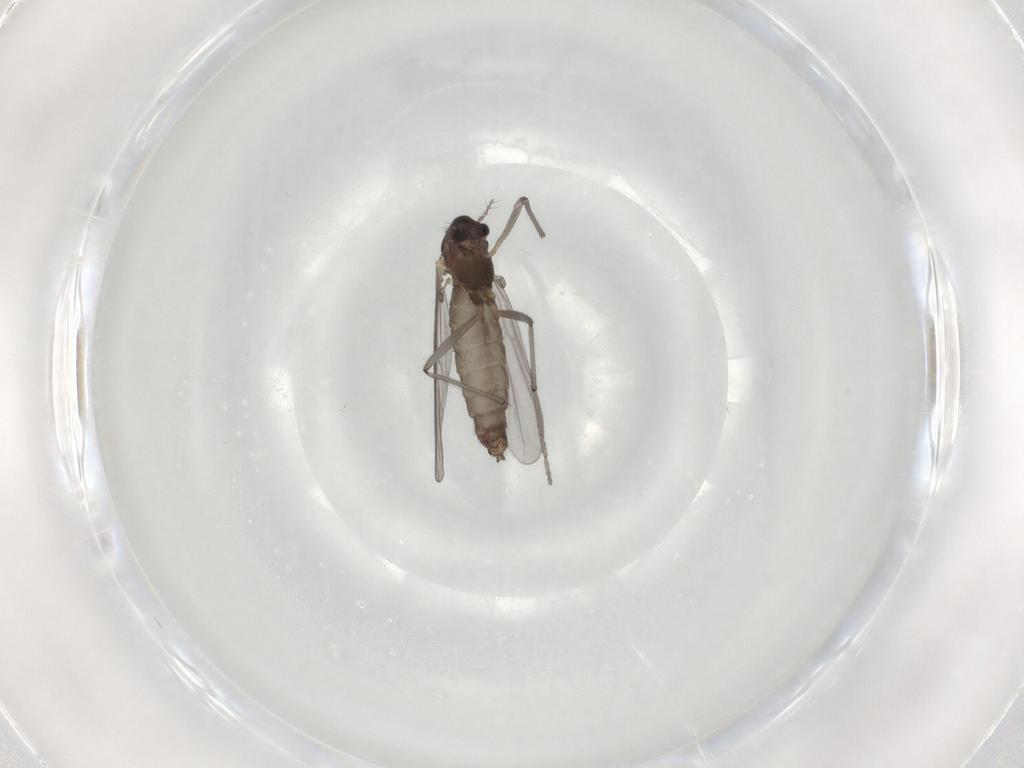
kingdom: Animalia
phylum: Arthropoda
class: Insecta
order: Diptera
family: Chironomidae
